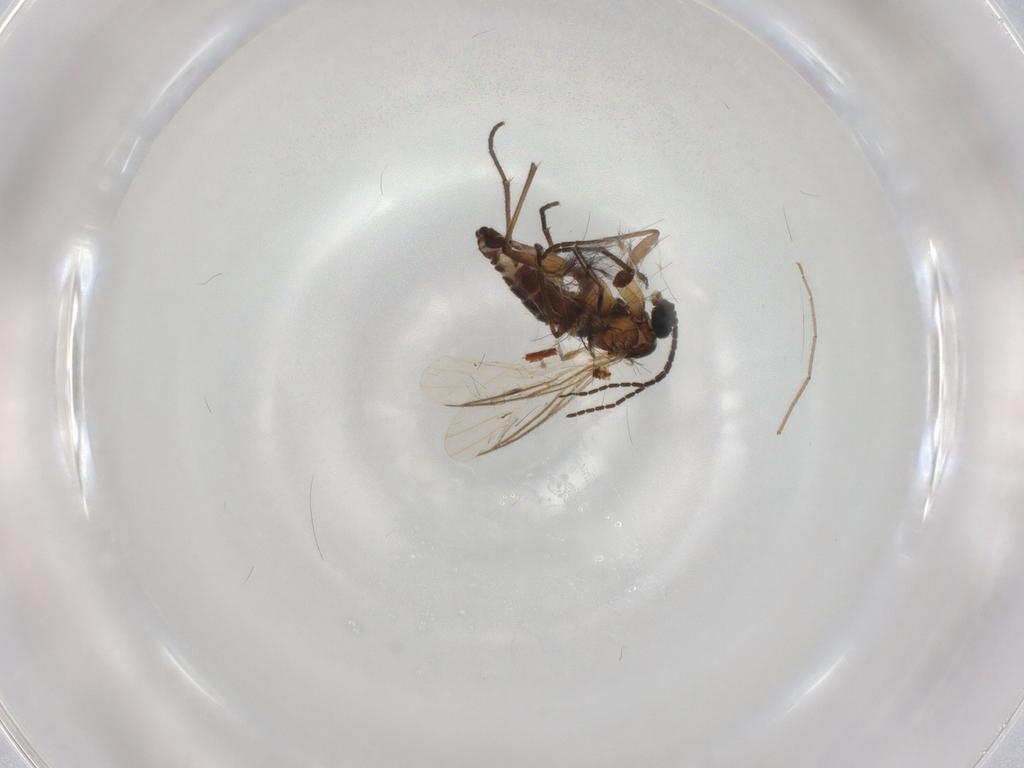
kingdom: Animalia
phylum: Arthropoda
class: Insecta
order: Diptera
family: Chironomidae
